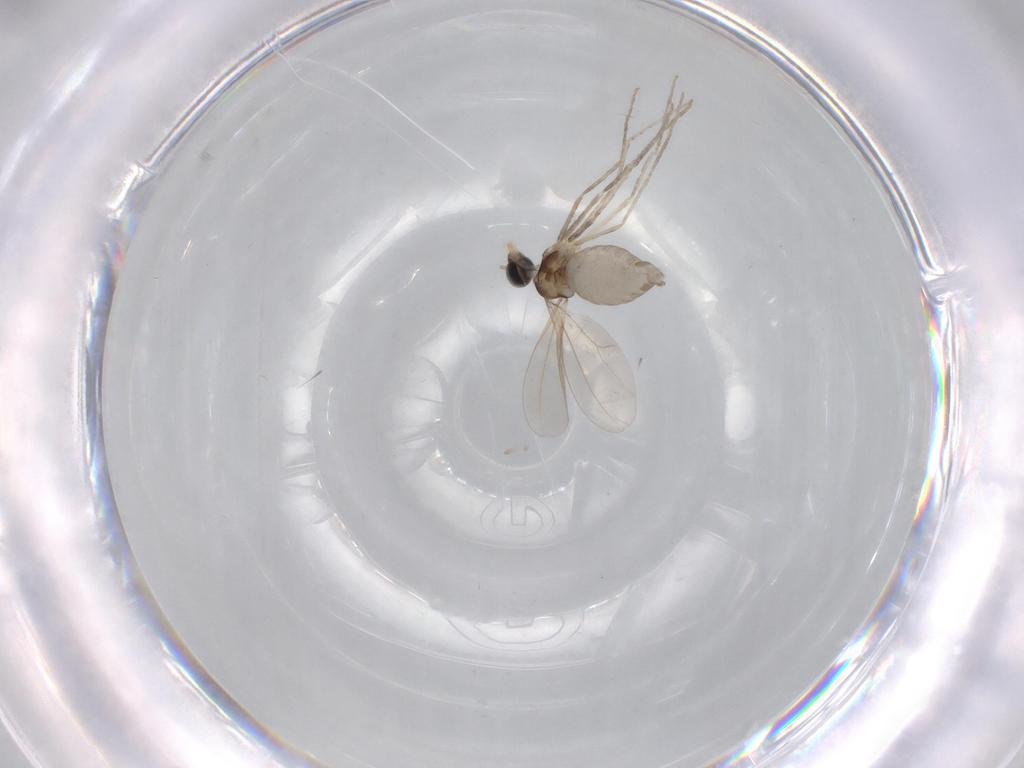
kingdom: Animalia
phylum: Arthropoda
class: Insecta
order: Diptera
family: Cecidomyiidae
